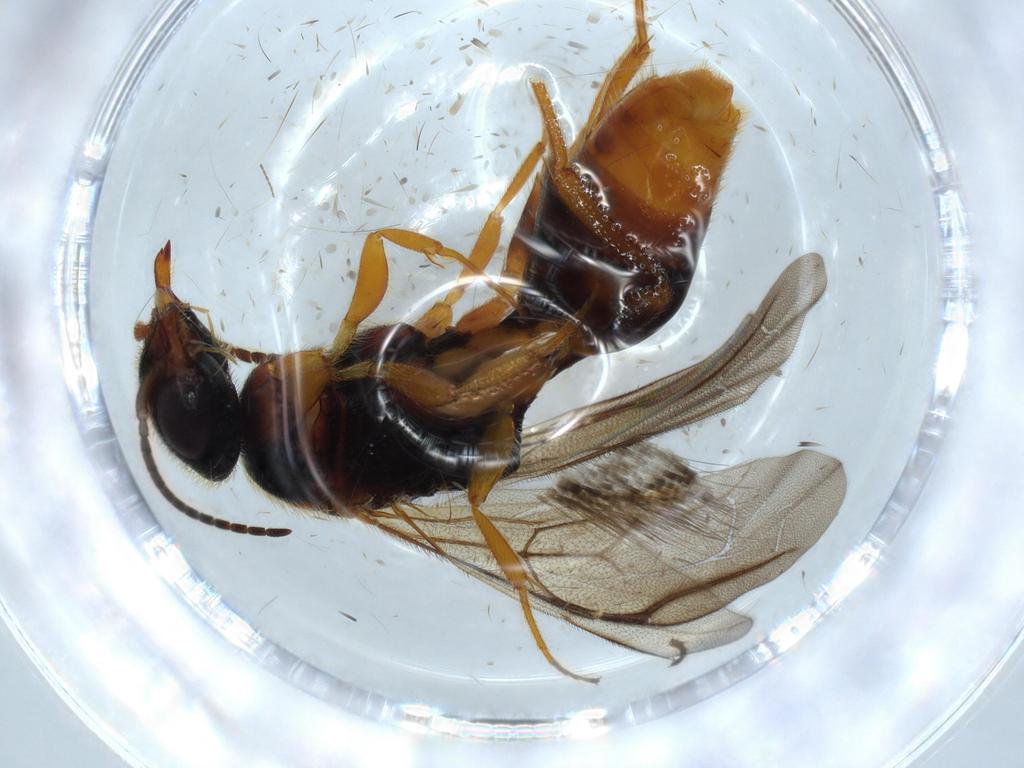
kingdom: Animalia
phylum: Arthropoda
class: Insecta
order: Hymenoptera
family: Bethylidae
